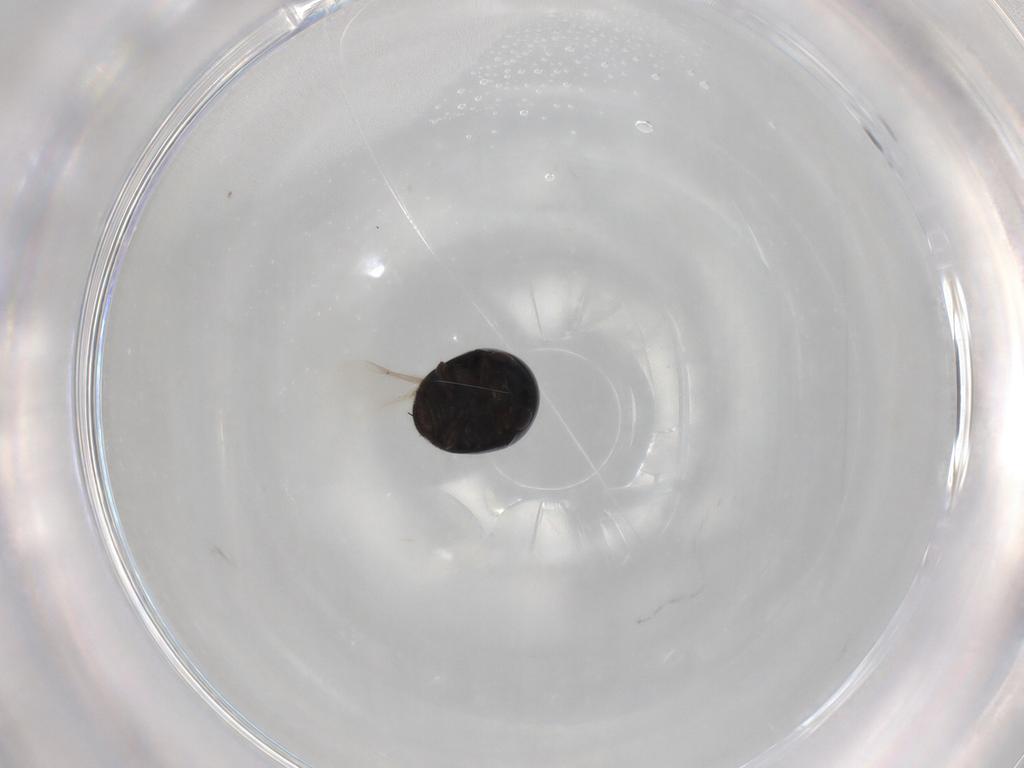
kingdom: Animalia
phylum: Arthropoda
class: Insecta
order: Coleoptera
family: Cybocephalidae
